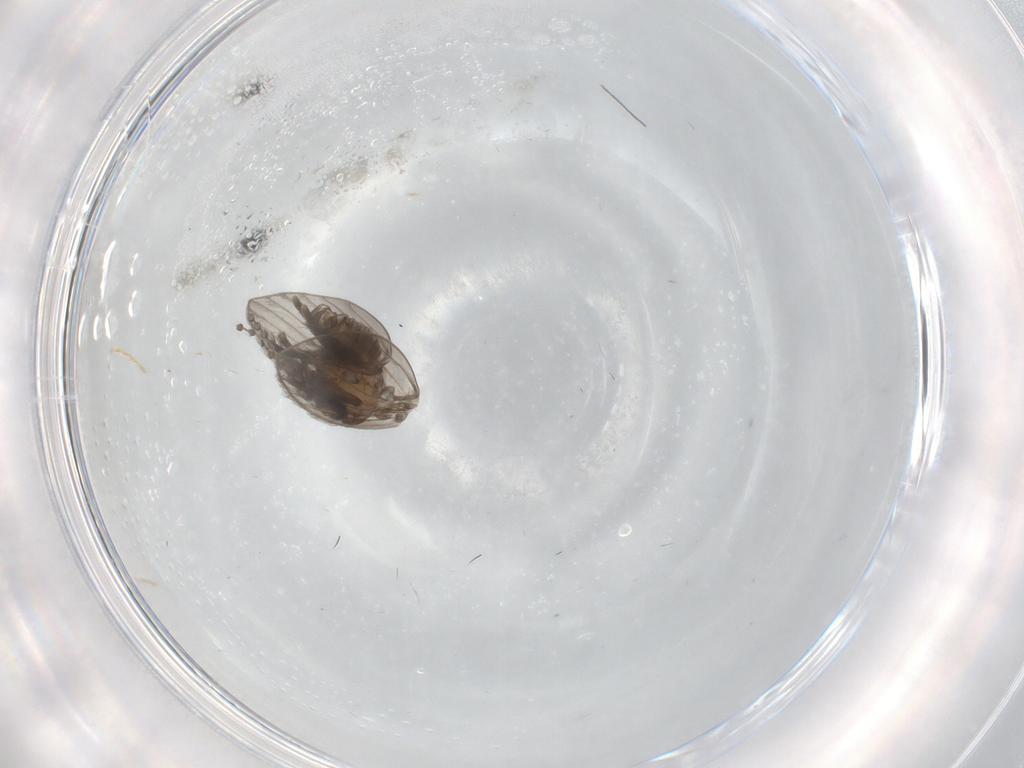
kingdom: Animalia
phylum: Arthropoda
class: Insecta
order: Diptera
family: Psychodidae
